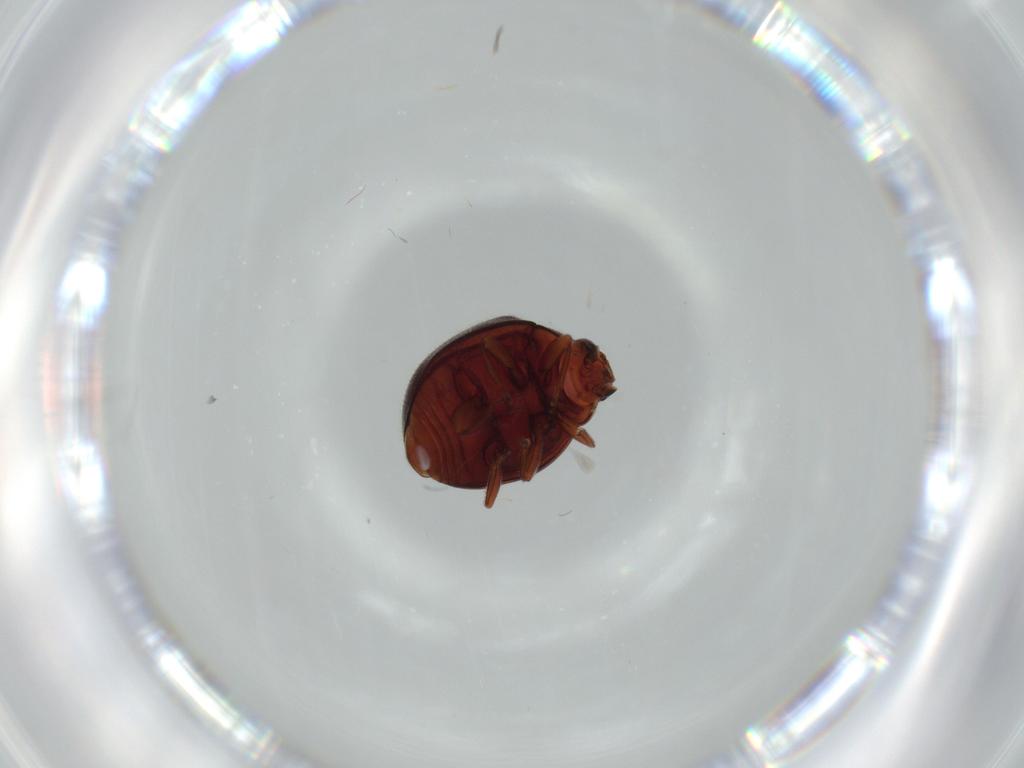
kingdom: Animalia
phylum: Arthropoda
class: Insecta
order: Coleoptera
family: Coccinellidae
